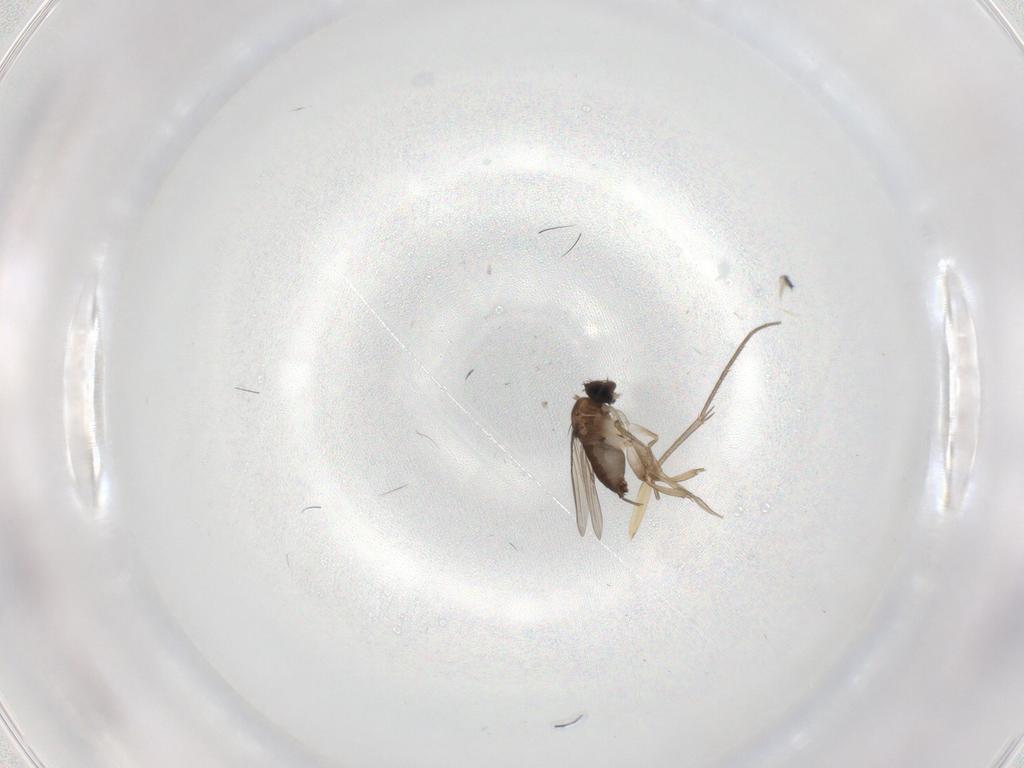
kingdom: Animalia
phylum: Arthropoda
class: Insecta
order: Diptera
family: Phoridae
